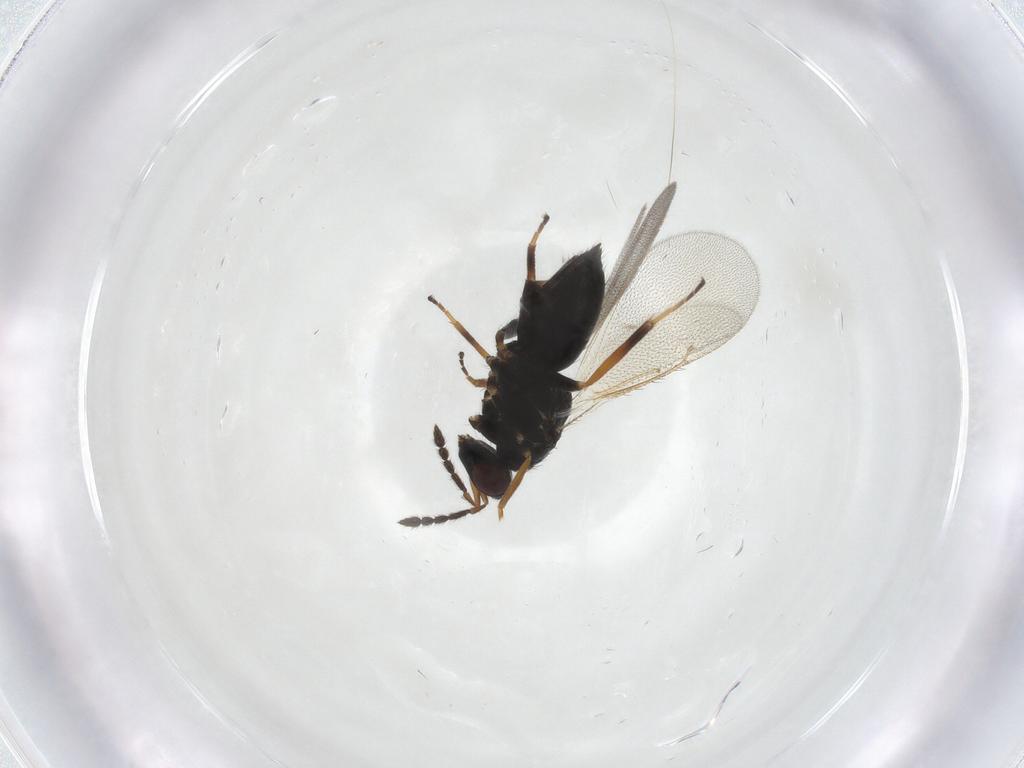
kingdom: Animalia
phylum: Arthropoda
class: Insecta
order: Hymenoptera
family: Eulophidae
